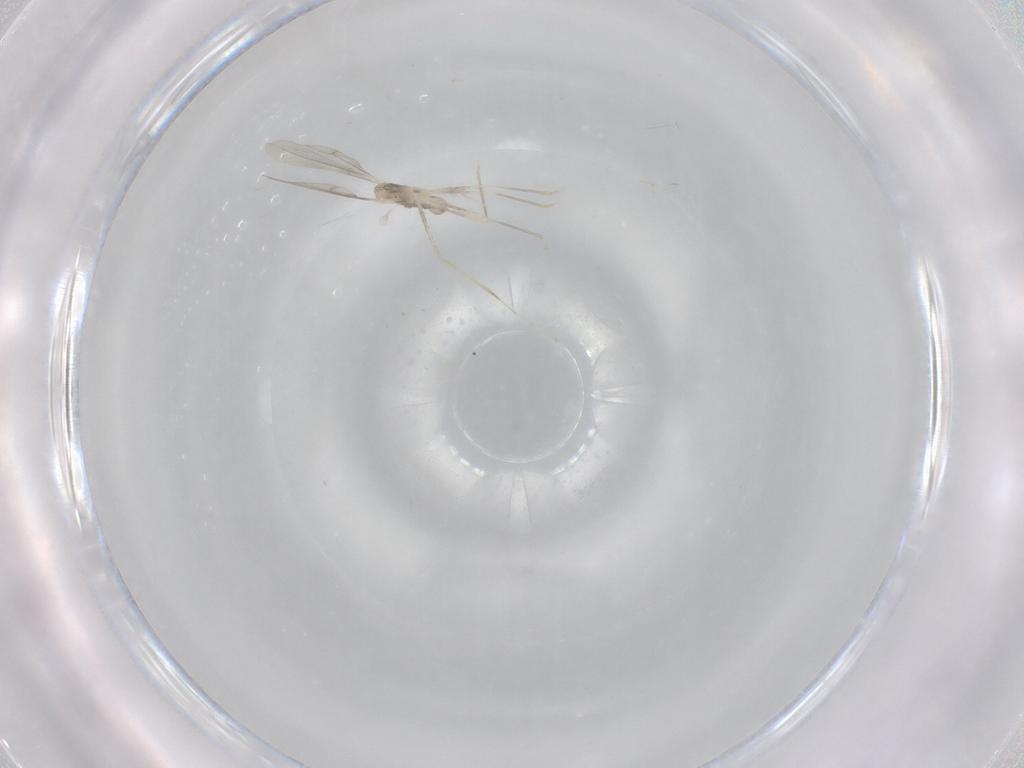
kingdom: Animalia
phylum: Arthropoda
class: Insecta
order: Diptera
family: Cecidomyiidae
